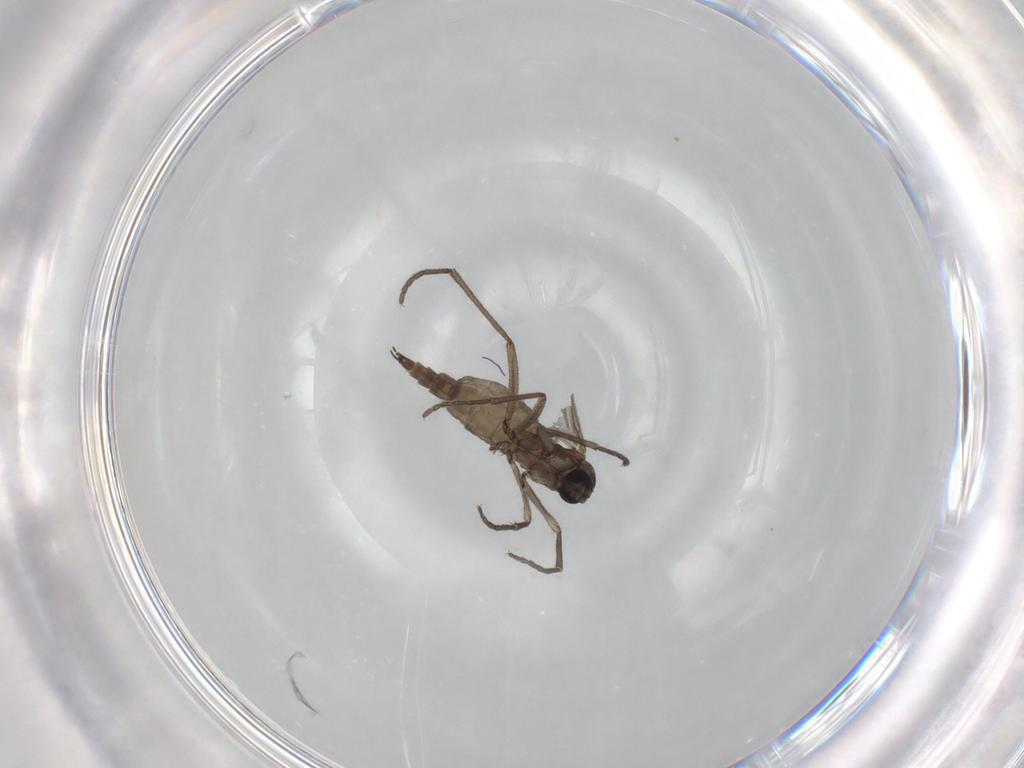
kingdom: Animalia
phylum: Arthropoda
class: Insecta
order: Diptera
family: Sciaridae
